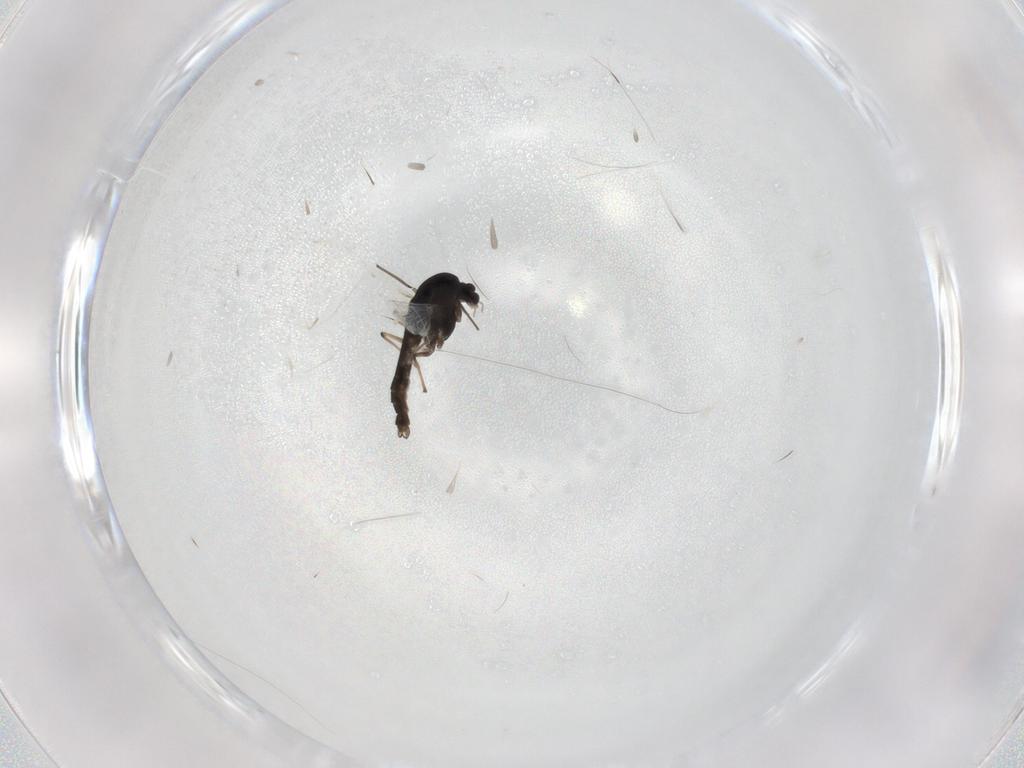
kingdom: Animalia
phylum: Arthropoda
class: Insecta
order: Diptera
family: Chironomidae
